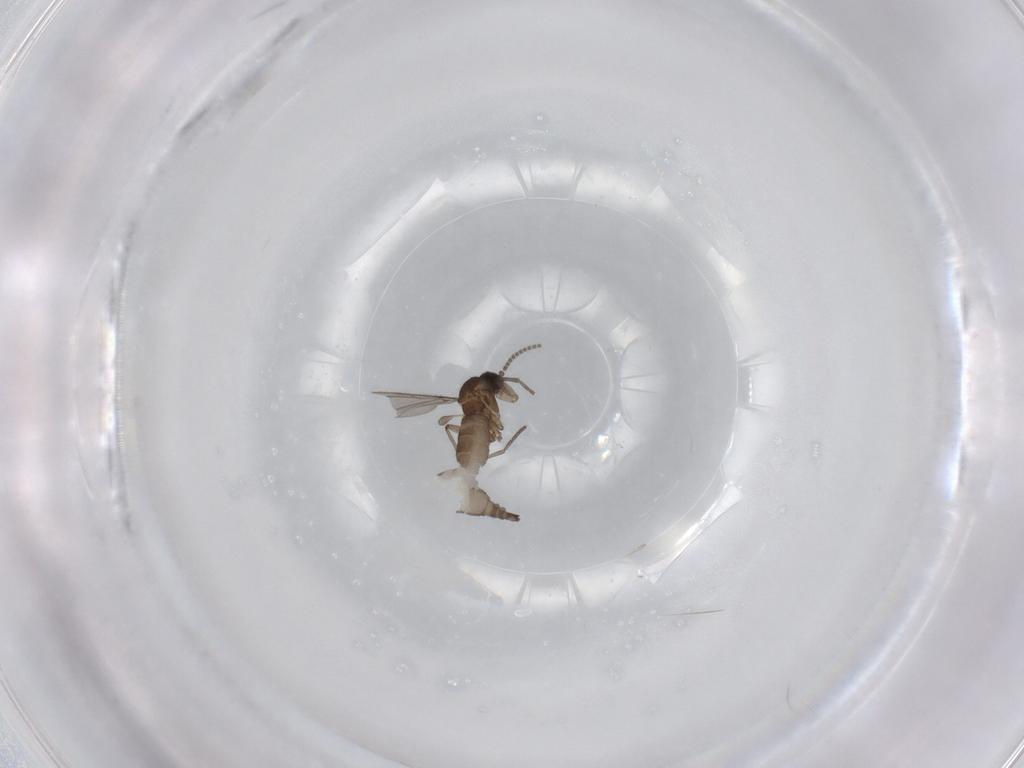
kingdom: Animalia
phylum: Arthropoda
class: Insecta
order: Diptera
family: Sciaridae
